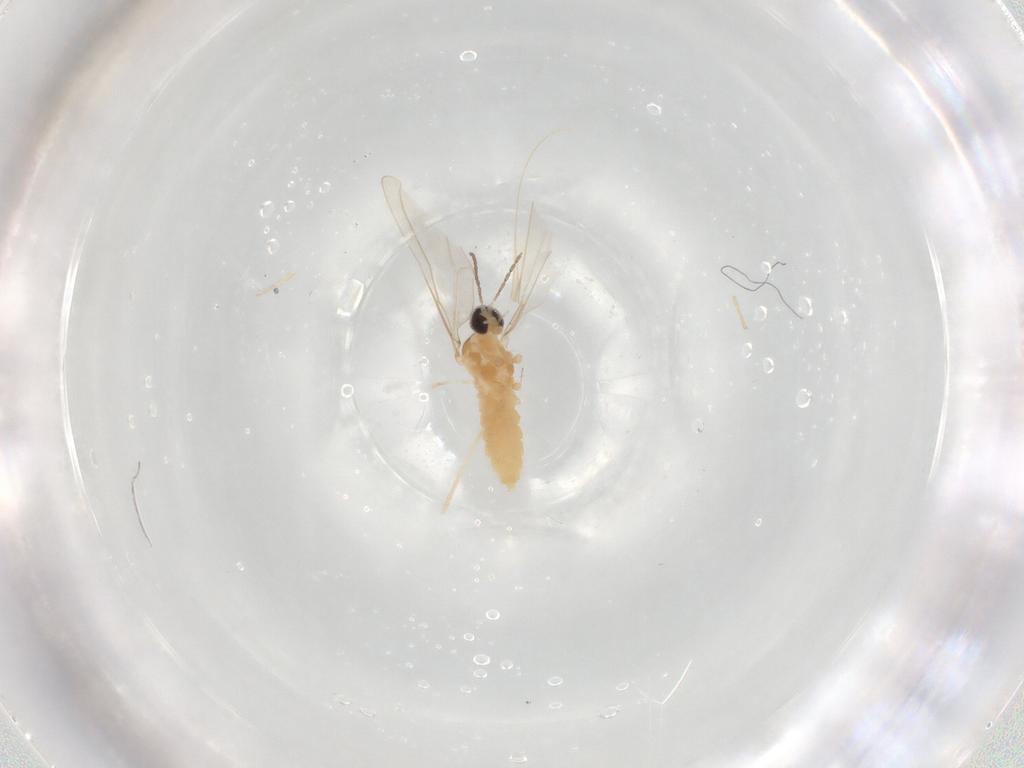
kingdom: Animalia
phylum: Arthropoda
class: Insecta
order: Diptera
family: Cecidomyiidae
